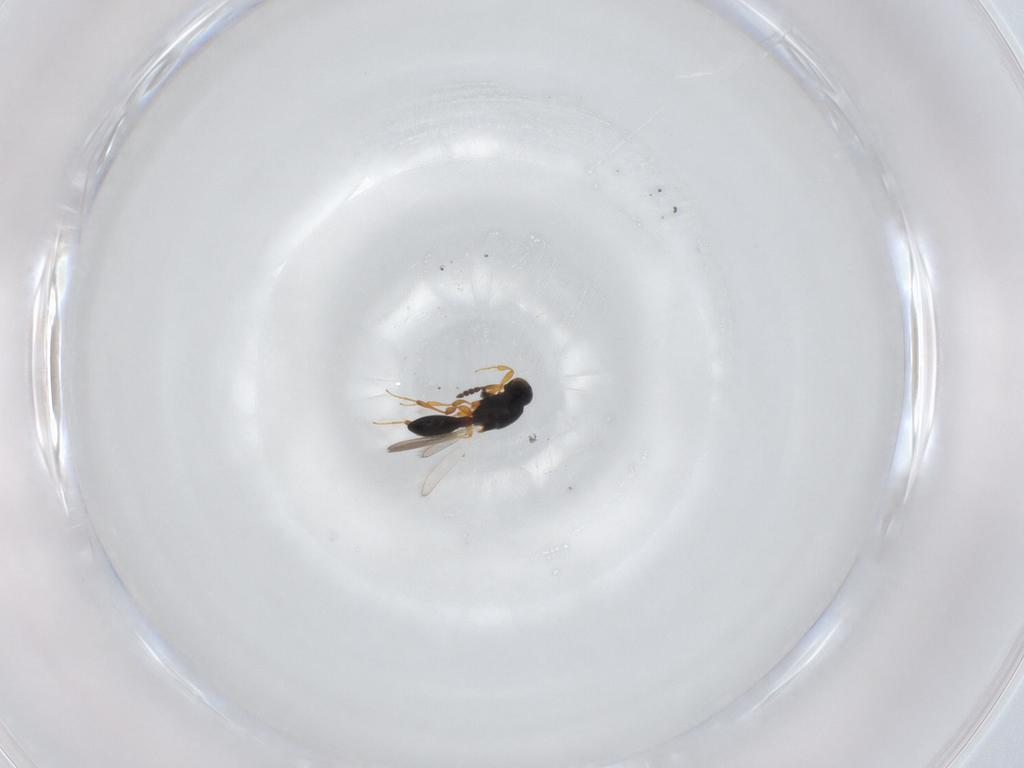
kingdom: Animalia
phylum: Arthropoda
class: Insecta
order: Hymenoptera
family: Platygastridae
